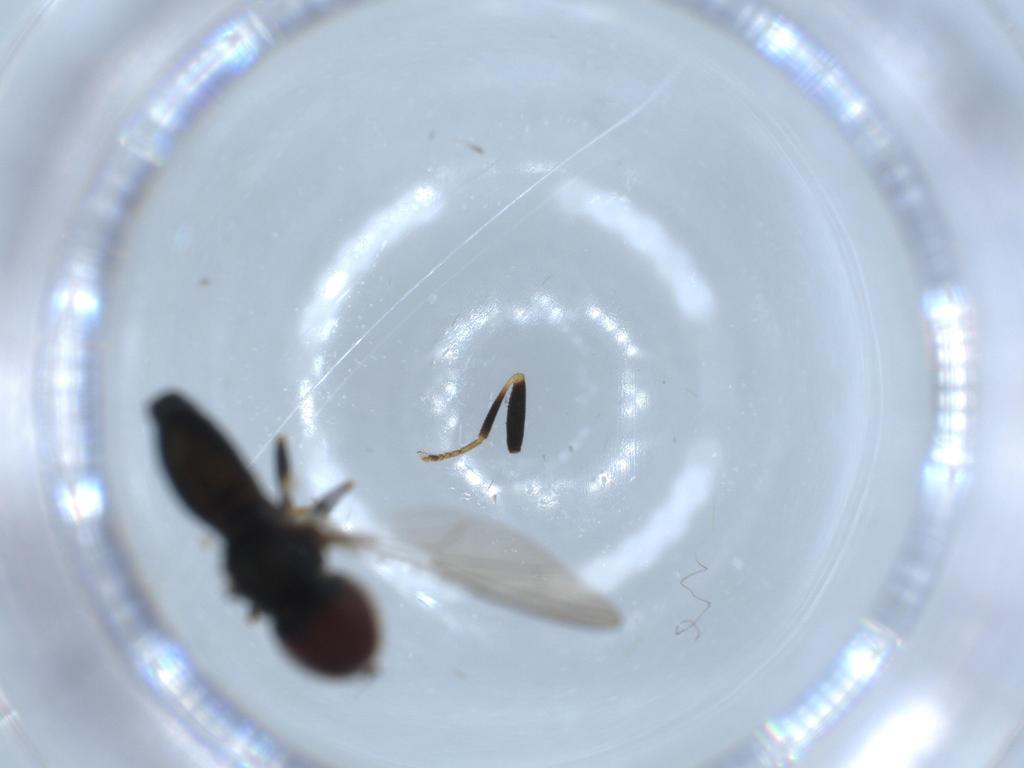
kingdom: Animalia
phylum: Arthropoda
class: Insecta
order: Diptera
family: Pipunculidae
